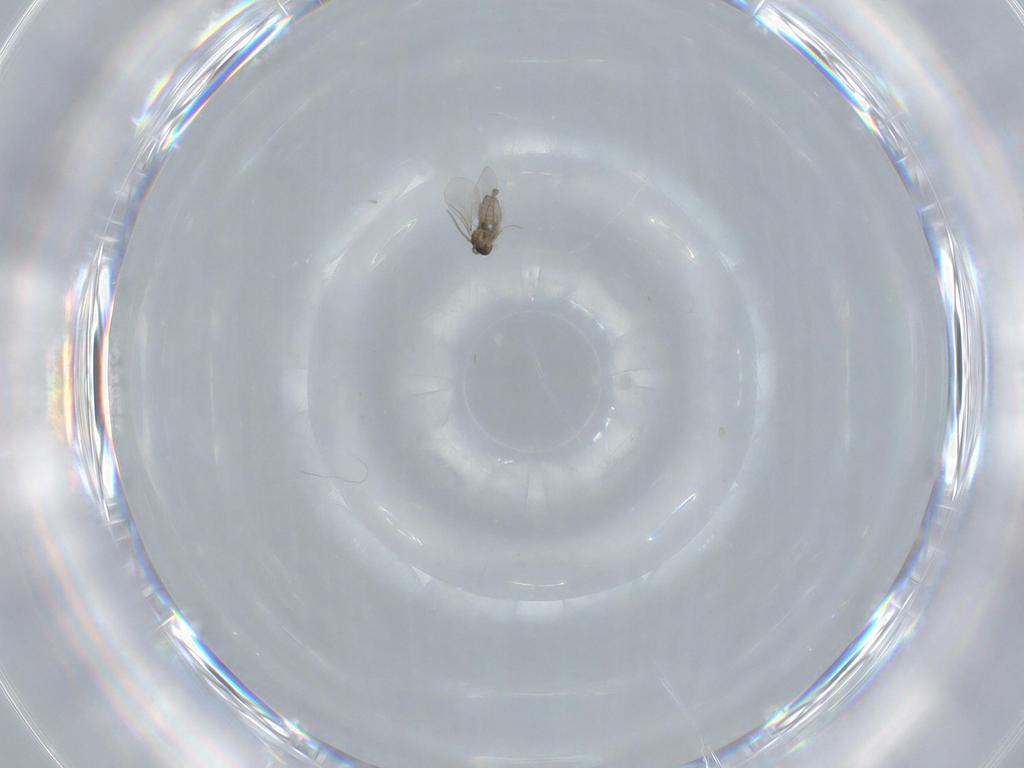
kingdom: Animalia
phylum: Arthropoda
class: Insecta
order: Diptera
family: Cecidomyiidae
